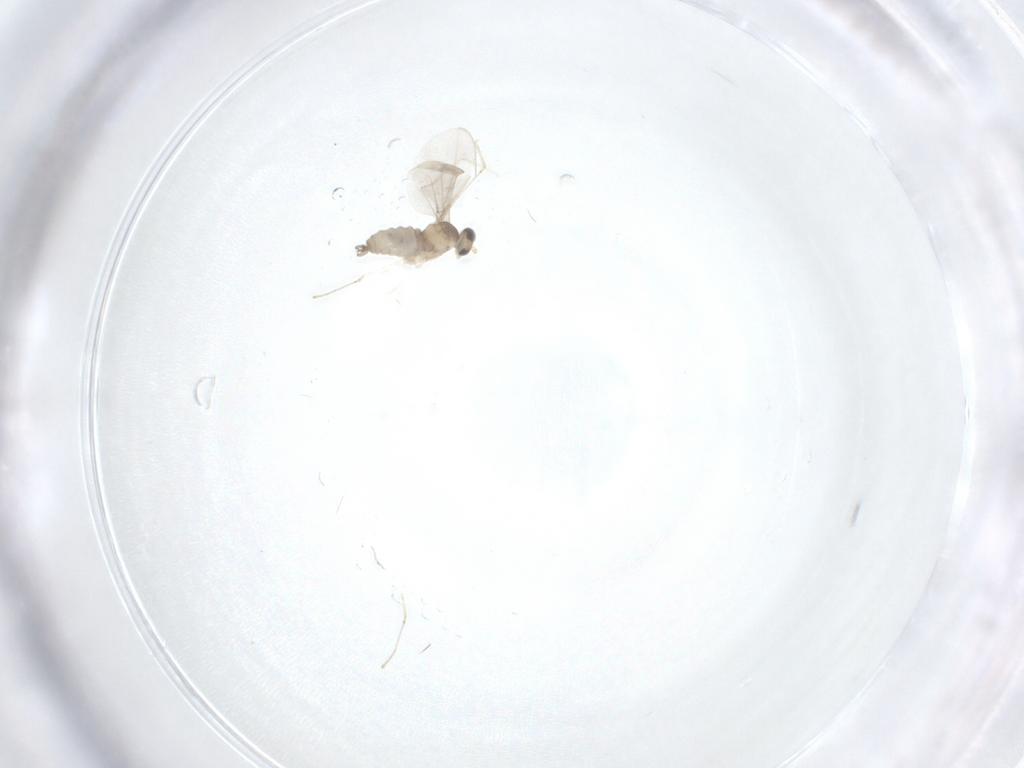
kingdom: Animalia
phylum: Arthropoda
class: Insecta
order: Diptera
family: Cecidomyiidae
